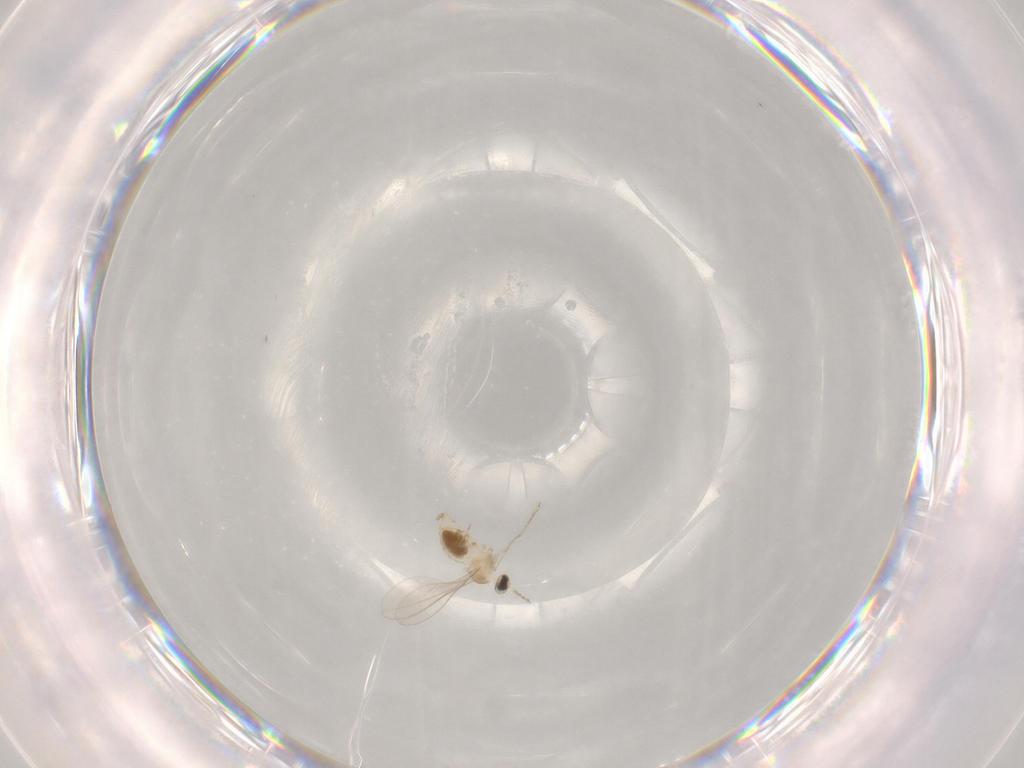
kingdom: Animalia
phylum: Arthropoda
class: Insecta
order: Diptera
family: Cecidomyiidae
